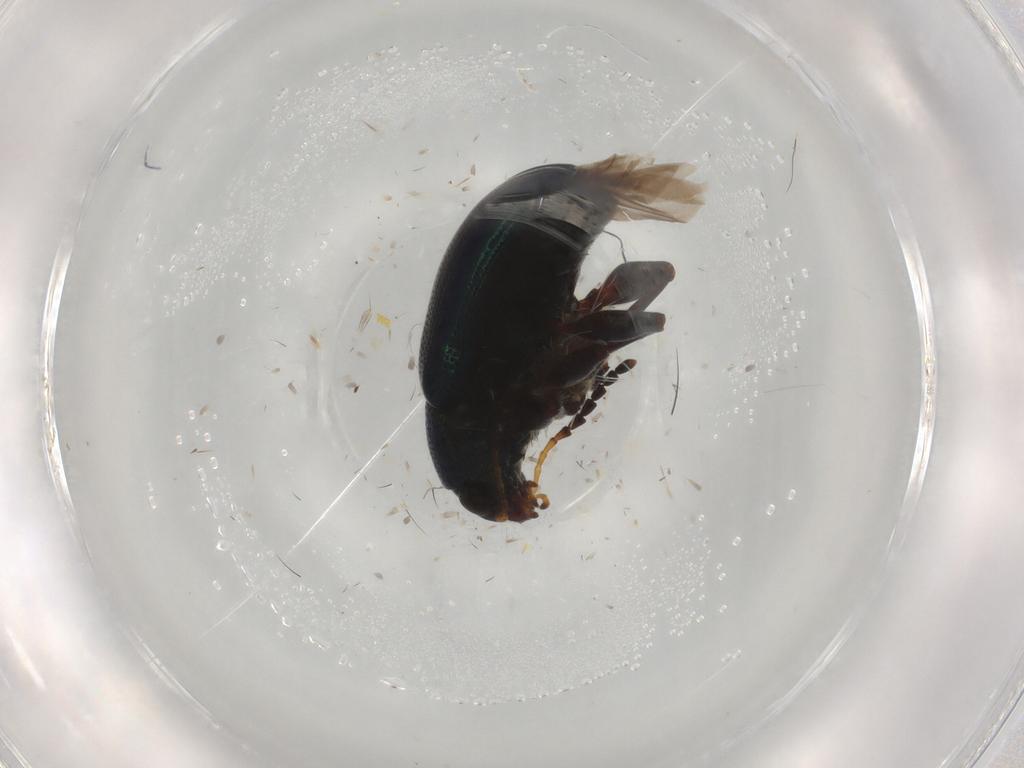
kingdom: Animalia
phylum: Arthropoda
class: Insecta
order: Coleoptera
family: Chrysomelidae
